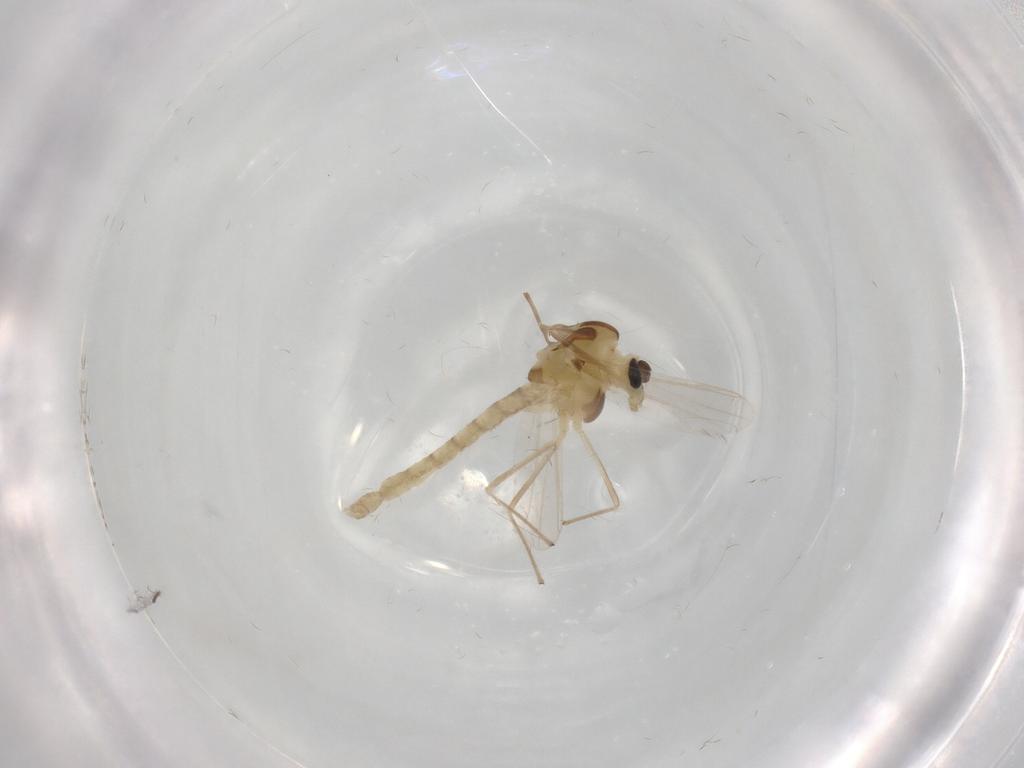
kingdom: Animalia
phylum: Arthropoda
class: Insecta
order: Diptera
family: Chironomidae
